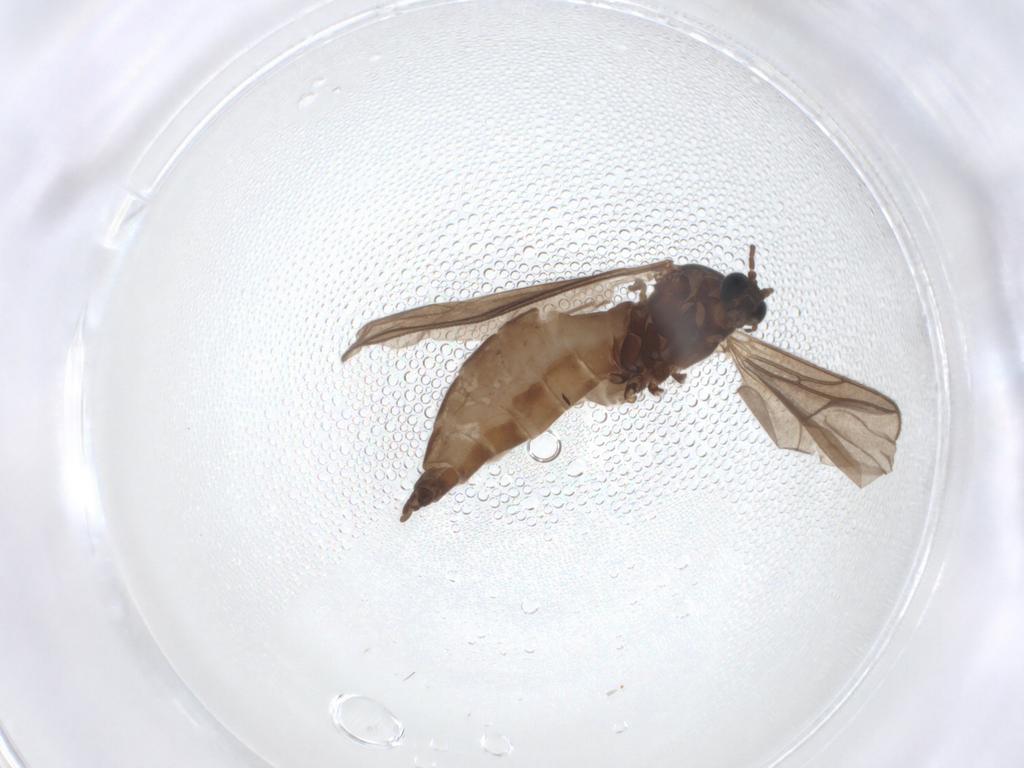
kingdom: Animalia
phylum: Arthropoda
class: Insecta
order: Diptera
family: Sciaridae
